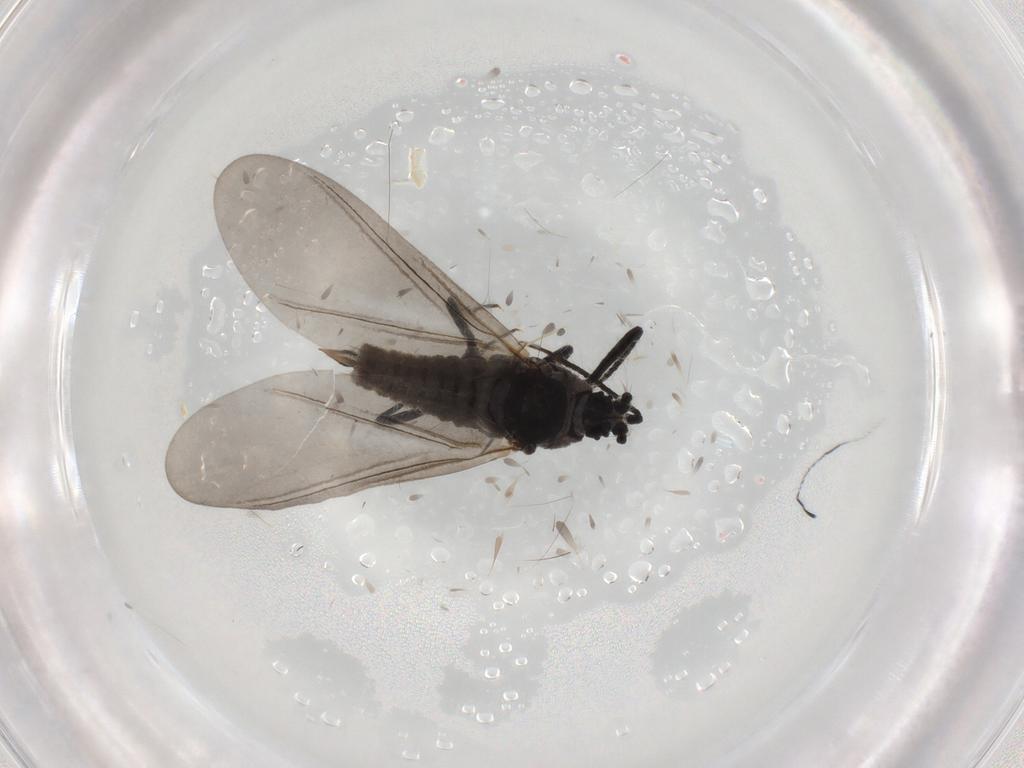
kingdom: Animalia
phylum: Arthropoda
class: Insecta
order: Hemiptera
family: Putoidae
